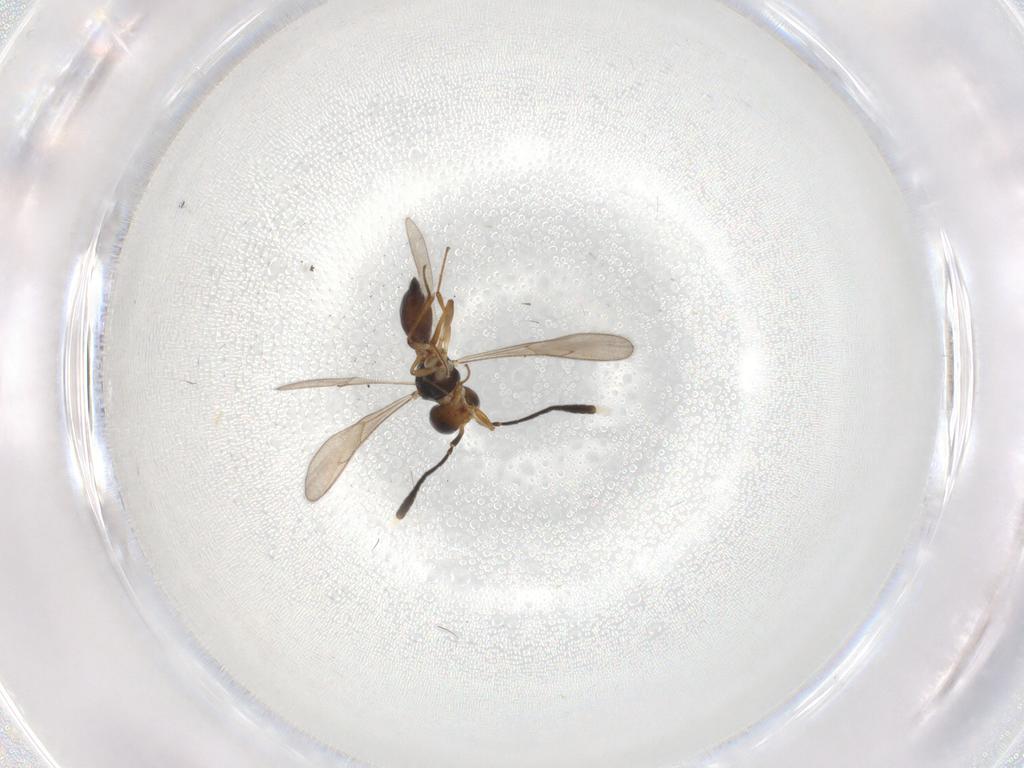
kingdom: Animalia
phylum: Arthropoda
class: Insecta
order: Hymenoptera
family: Scelionidae
